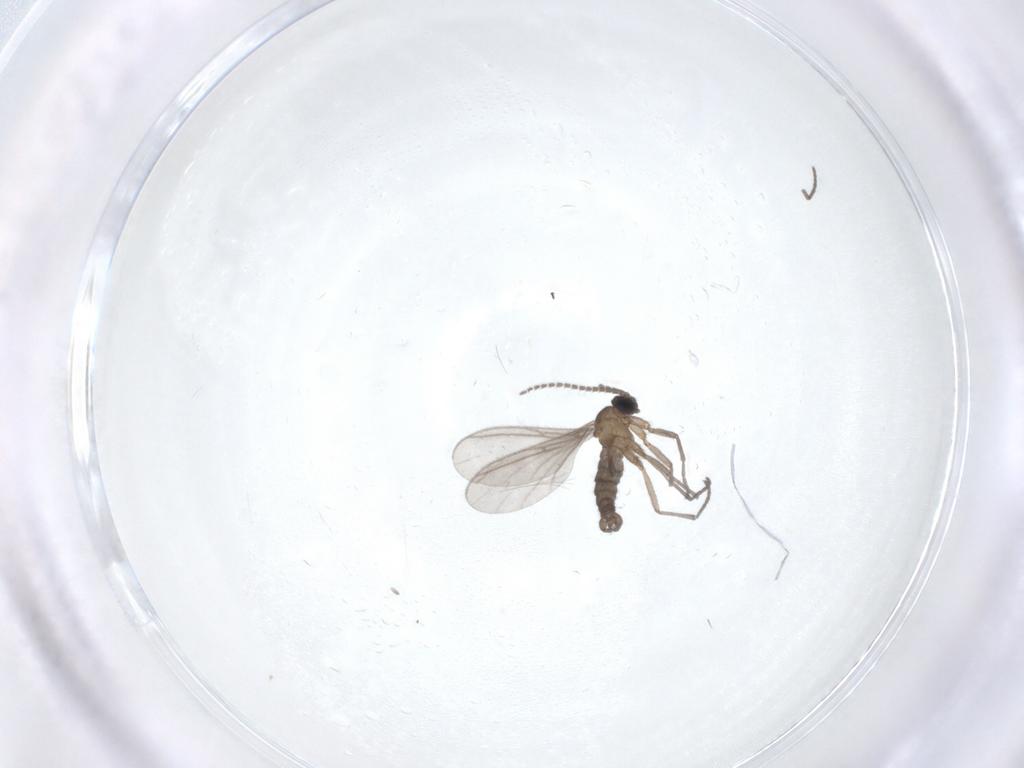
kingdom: Animalia
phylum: Arthropoda
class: Insecta
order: Diptera
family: Sciaridae
